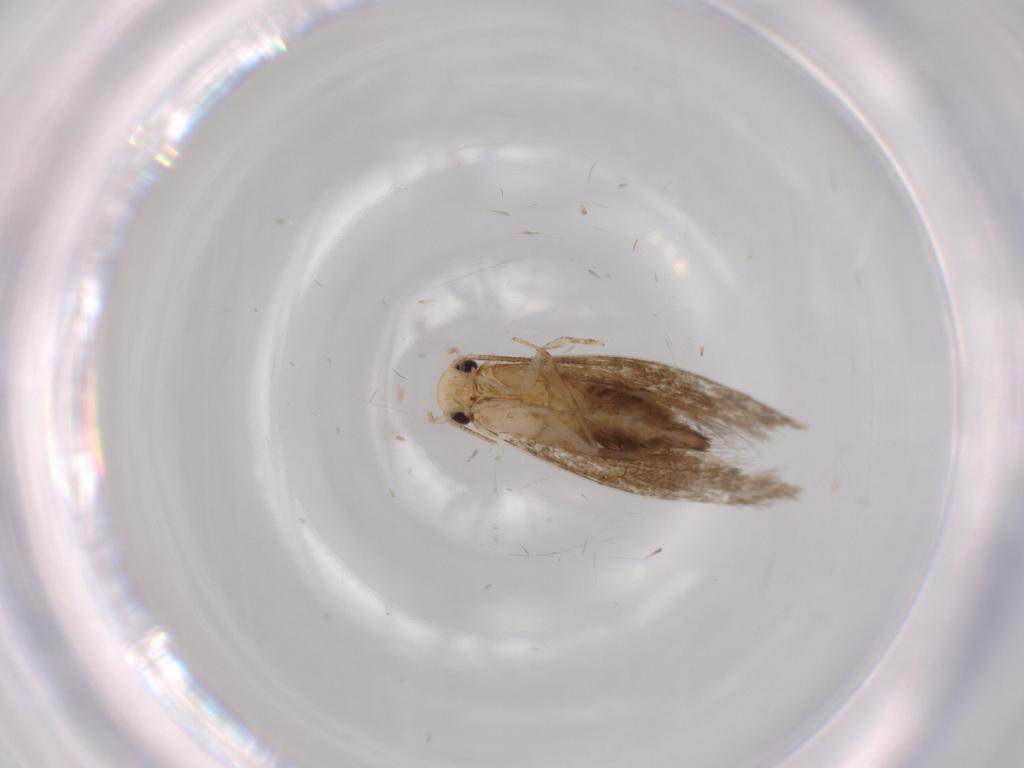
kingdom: Animalia
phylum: Arthropoda
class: Insecta
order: Lepidoptera
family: Tineidae
